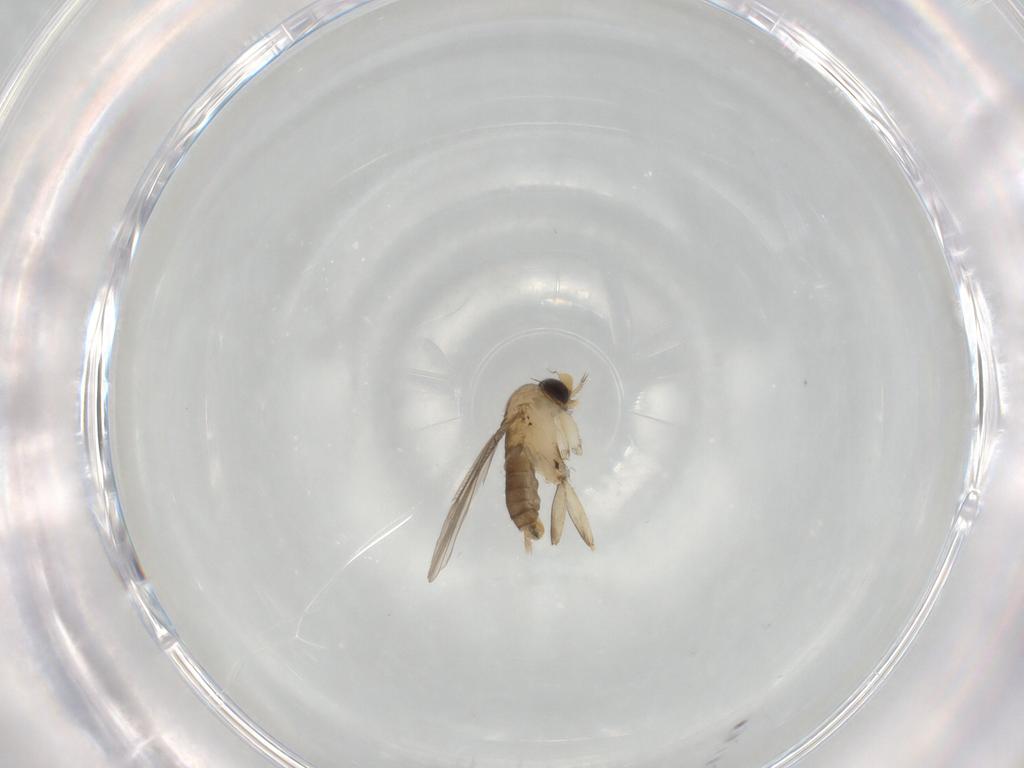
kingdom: Animalia
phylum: Arthropoda
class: Insecta
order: Diptera
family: Phoridae
